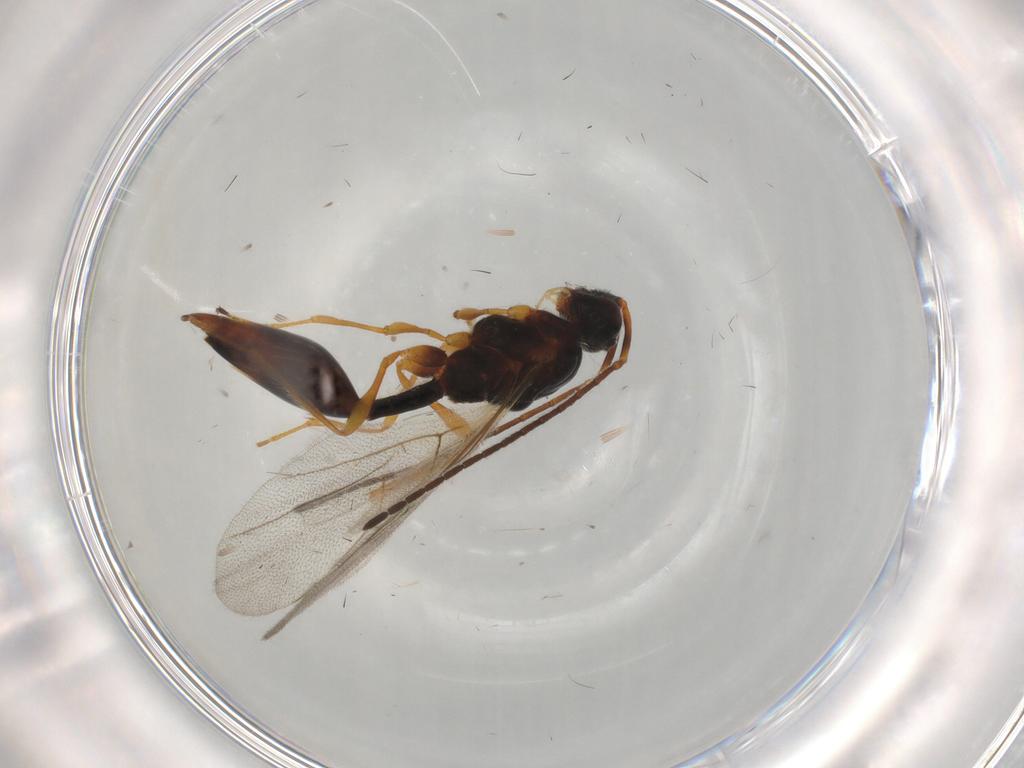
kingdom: Animalia
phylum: Arthropoda
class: Insecta
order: Hymenoptera
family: Diapriidae
